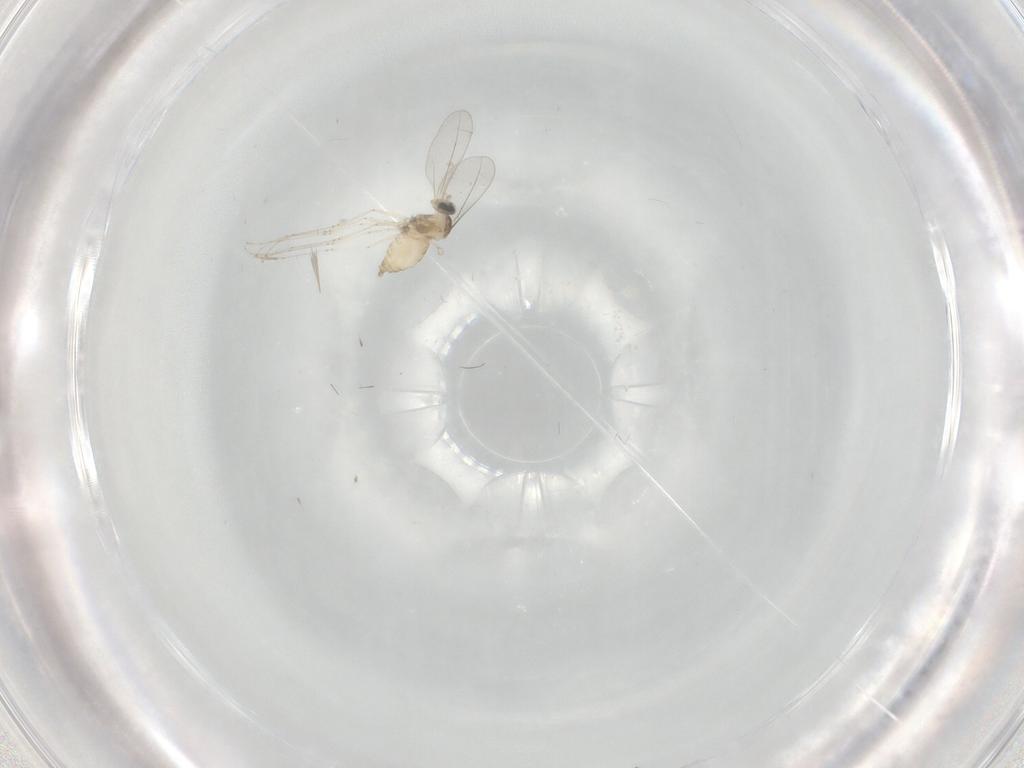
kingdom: Animalia
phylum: Arthropoda
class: Insecta
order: Diptera
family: Cecidomyiidae
